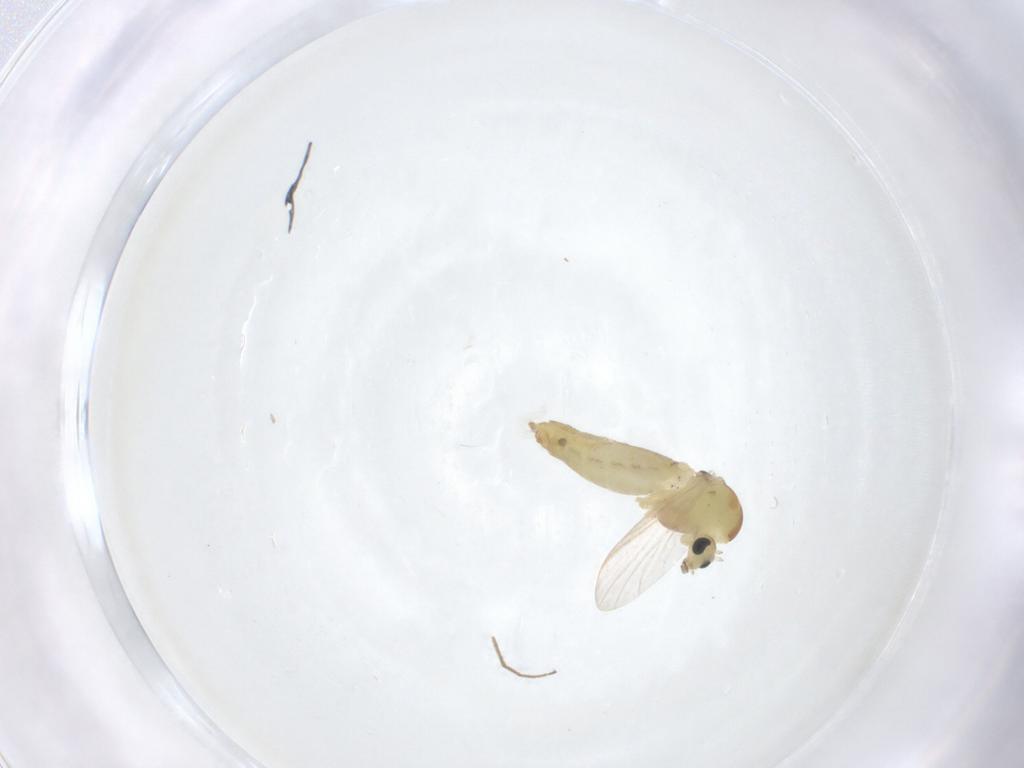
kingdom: Animalia
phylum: Arthropoda
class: Insecta
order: Diptera
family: Chironomidae
